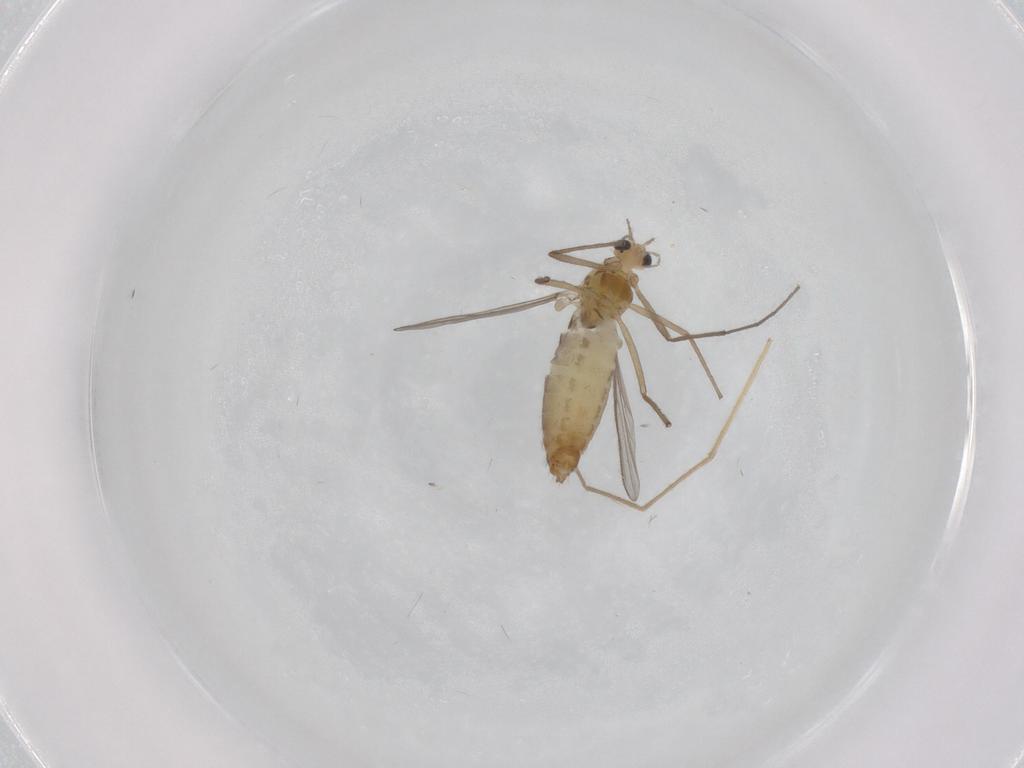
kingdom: Animalia
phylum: Arthropoda
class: Insecta
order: Diptera
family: Chironomidae
